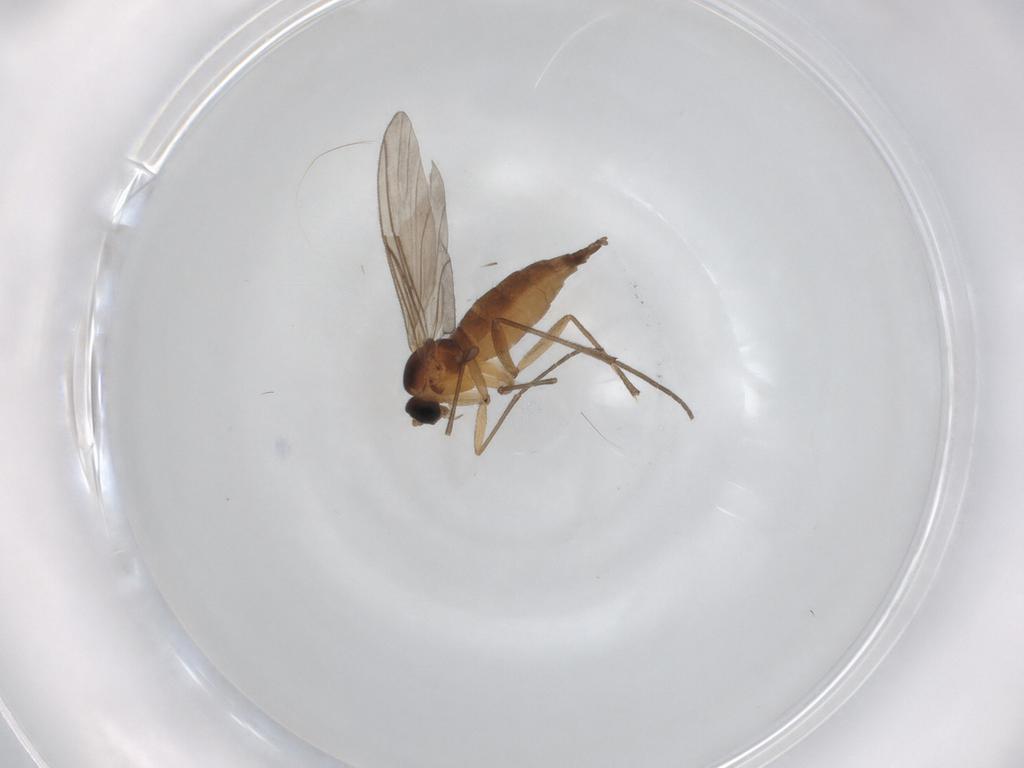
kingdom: Animalia
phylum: Arthropoda
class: Insecta
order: Diptera
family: Mycetophilidae
